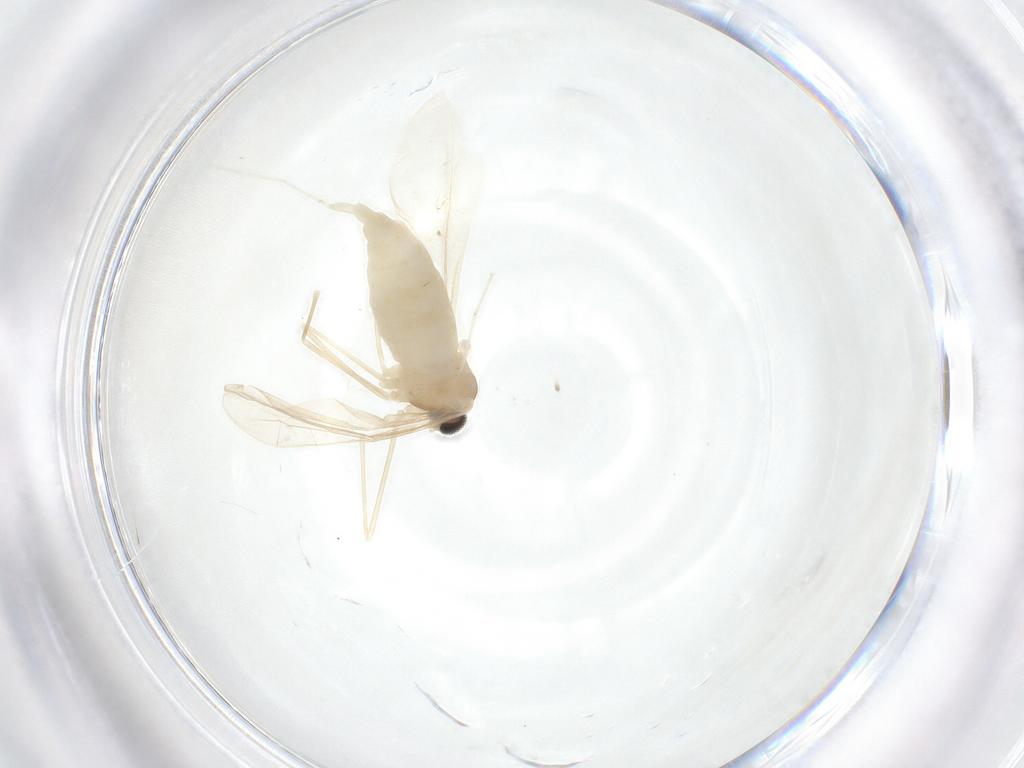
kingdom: Animalia
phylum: Arthropoda
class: Insecta
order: Diptera
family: Cecidomyiidae
